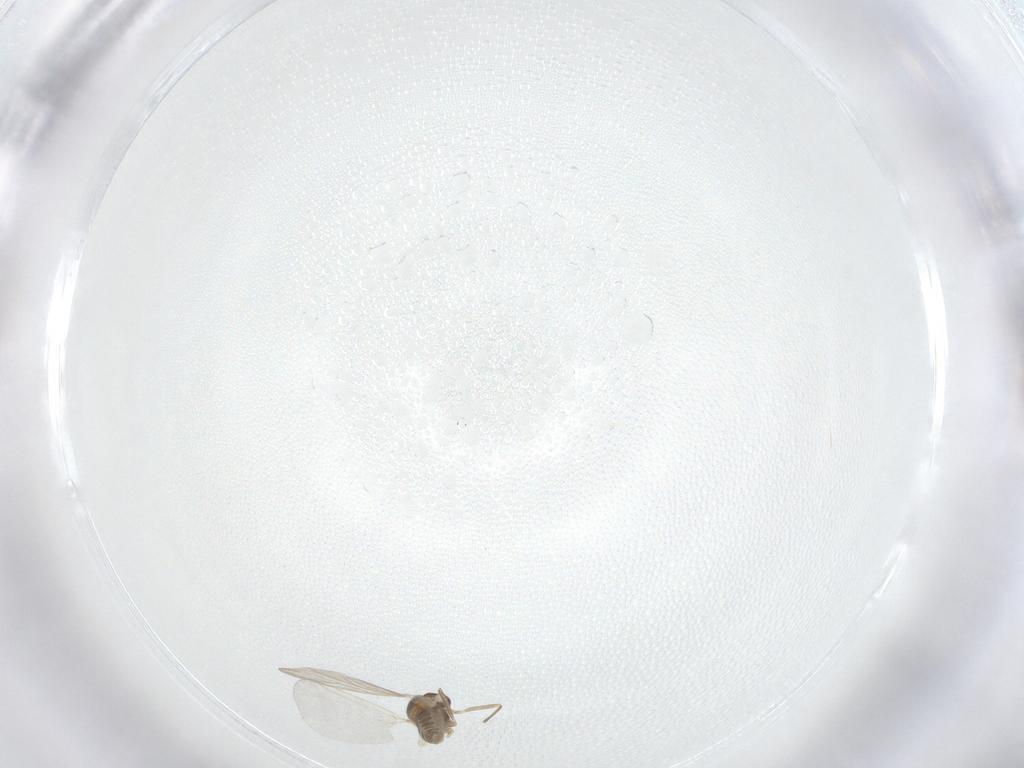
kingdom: Animalia
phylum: Arthropoda
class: Insecta
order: Diptera
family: Cecidomyiidae
